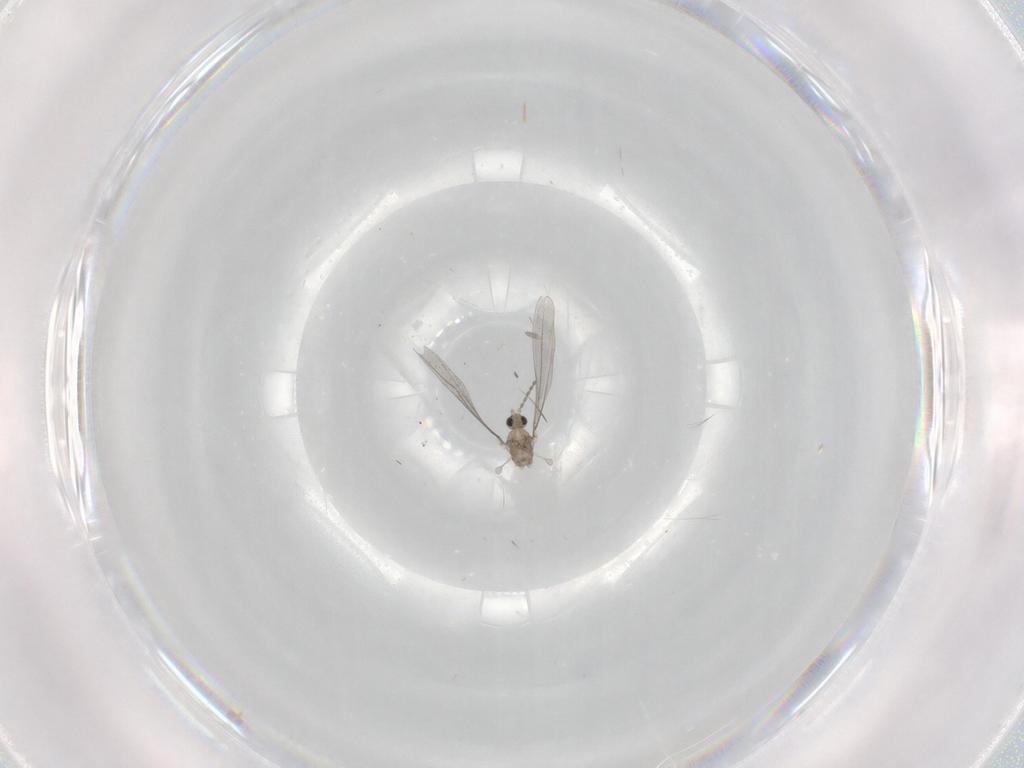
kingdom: Animalia
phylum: Arthropoda
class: Insecta
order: Diptera
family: Cecidomyiidae
